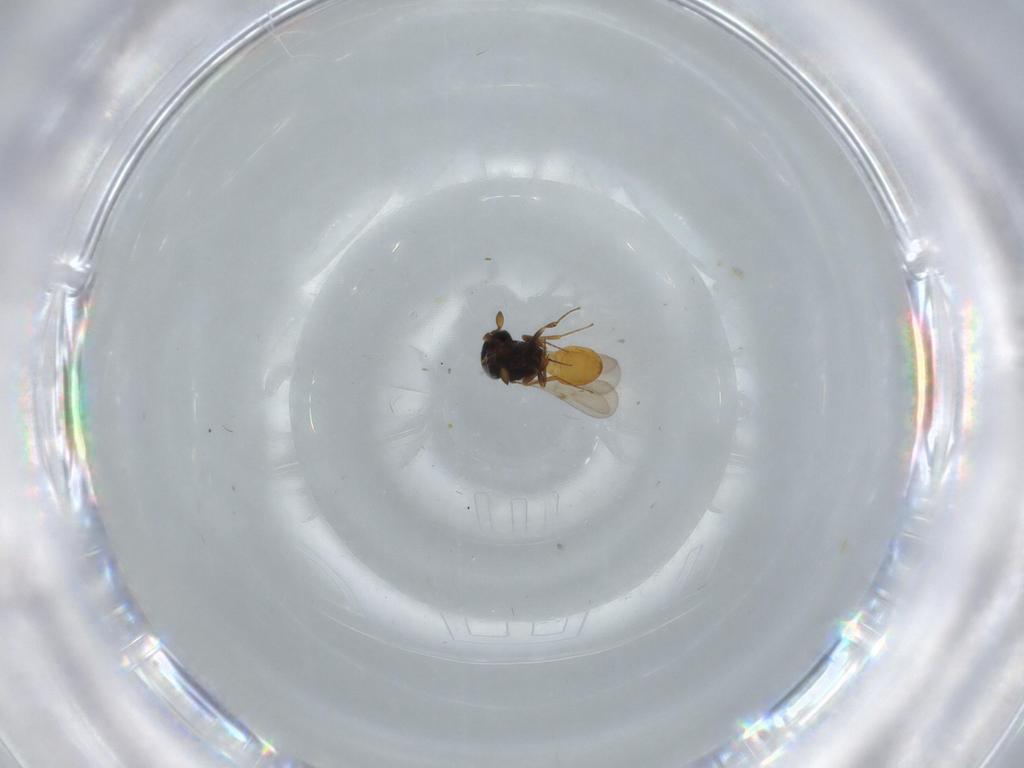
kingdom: Animalia
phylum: Arthropoda
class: Insecta
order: Hymenoptera
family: Scelionidae
